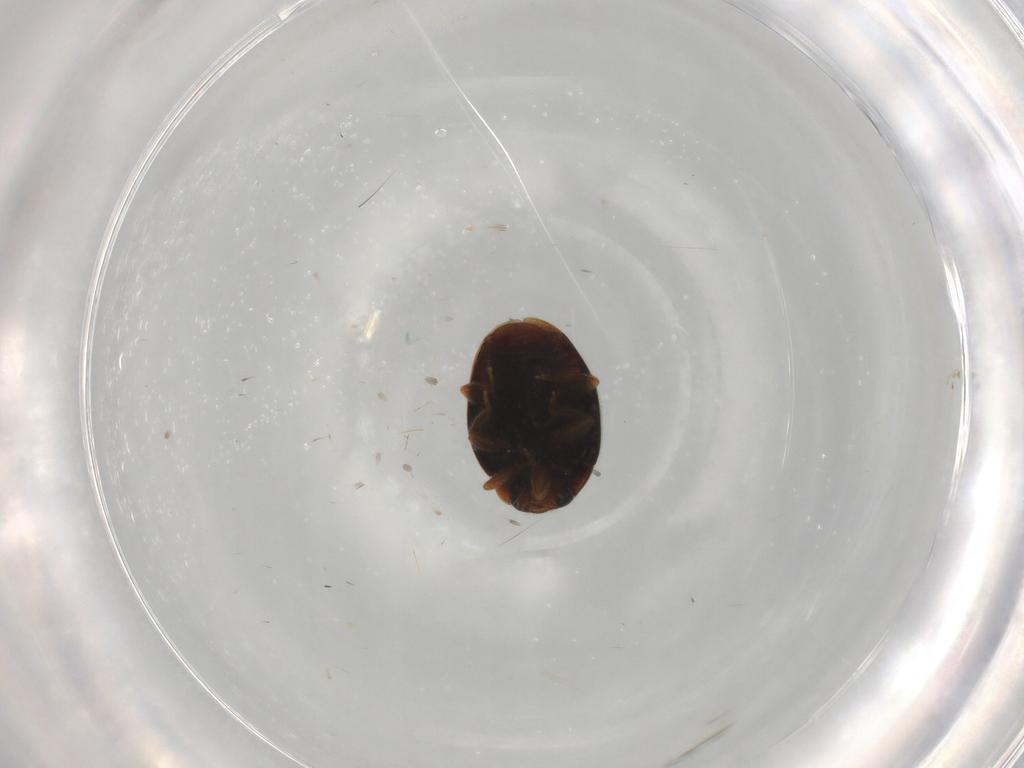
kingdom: Animalia
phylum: Arthropoda
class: Insecta
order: Coleoptera
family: Coccinellidae
